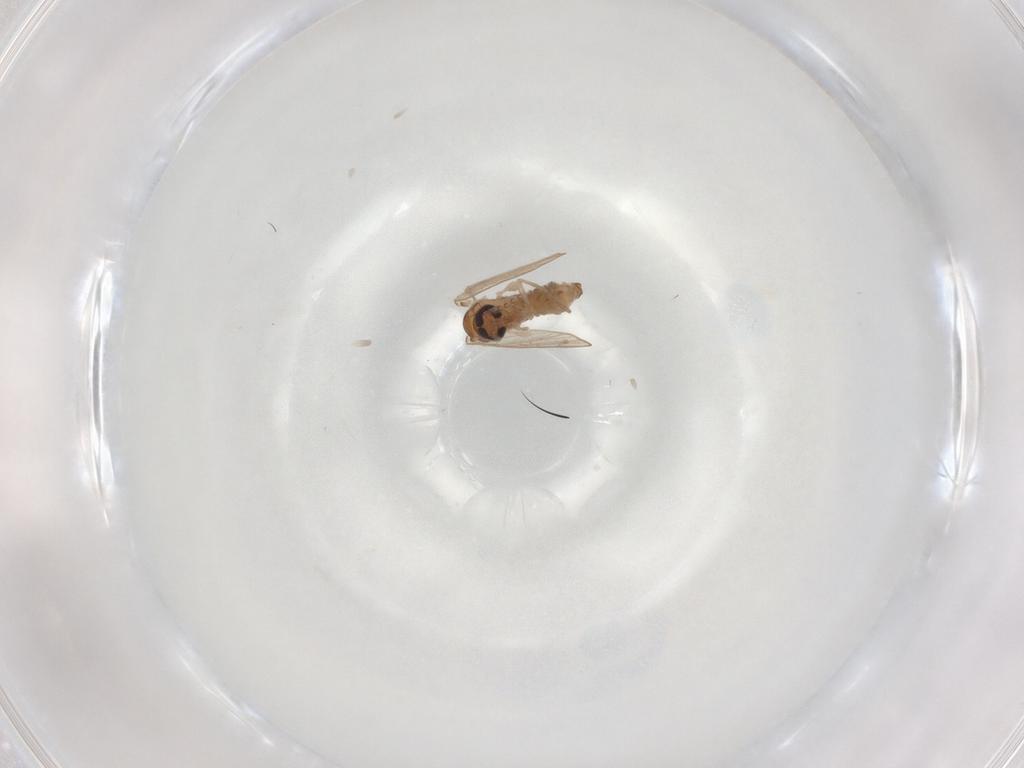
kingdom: Animalia
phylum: Arthropoda
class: Insecta
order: Diptera
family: Psychodidae
